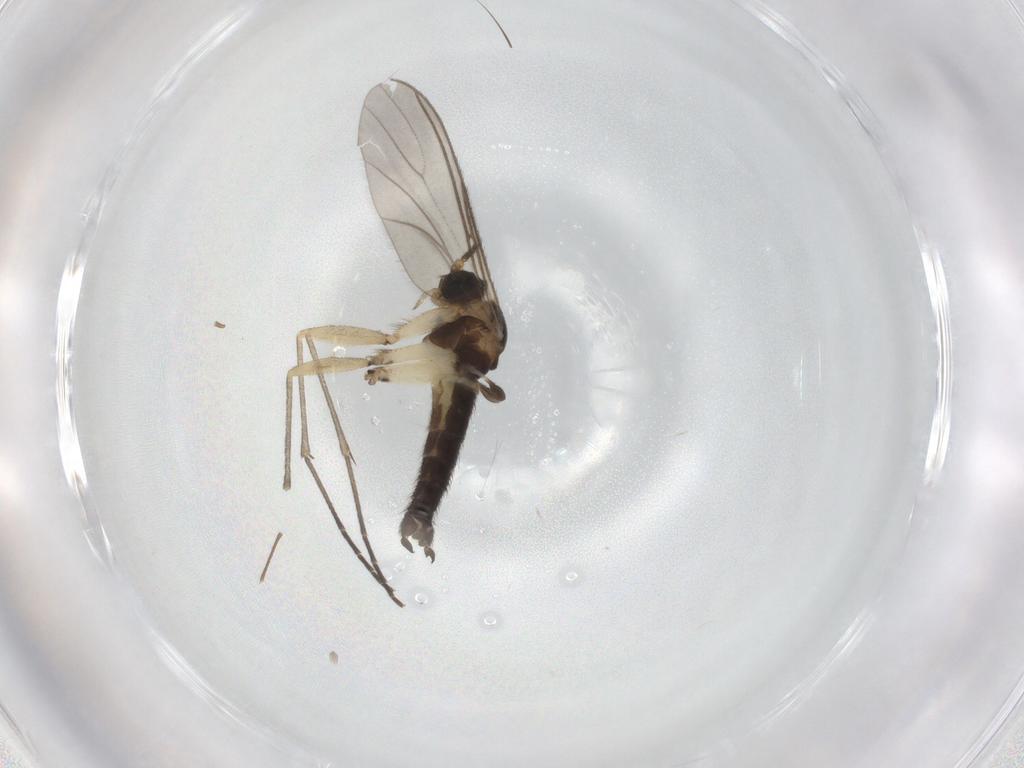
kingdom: Animalia
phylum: Arthropoda
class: Insecta
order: Diptera
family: Sciaridae
